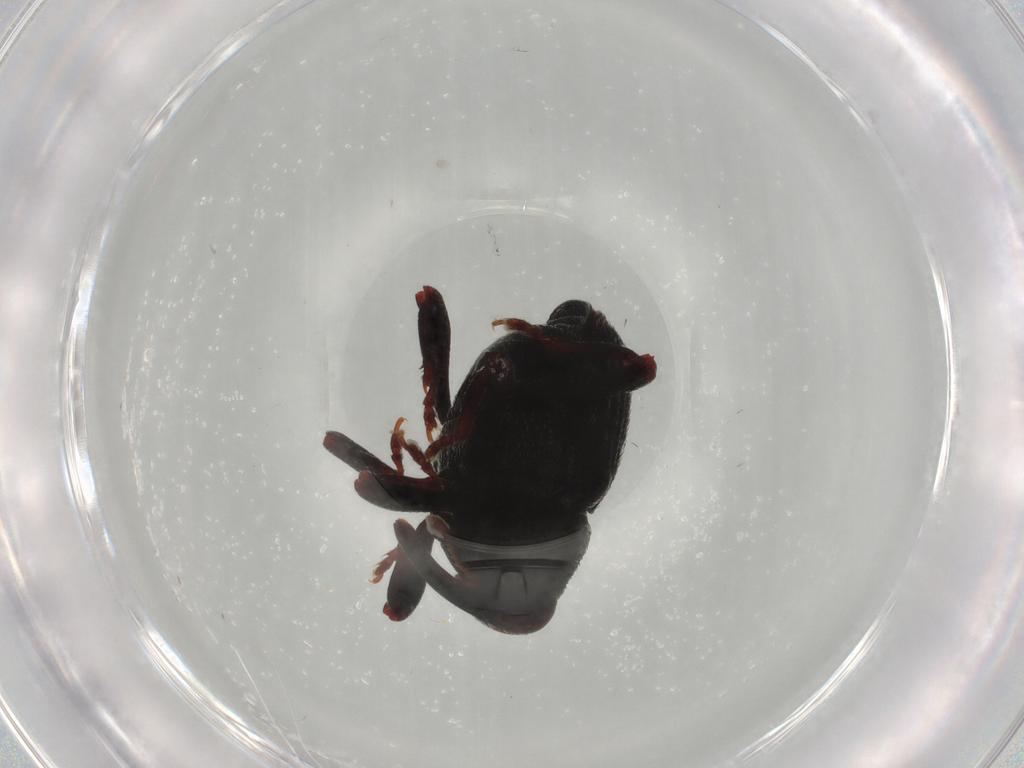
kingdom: Animalia
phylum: Arthropoda
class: Insecta
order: Coleoptera
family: Curculionidae
